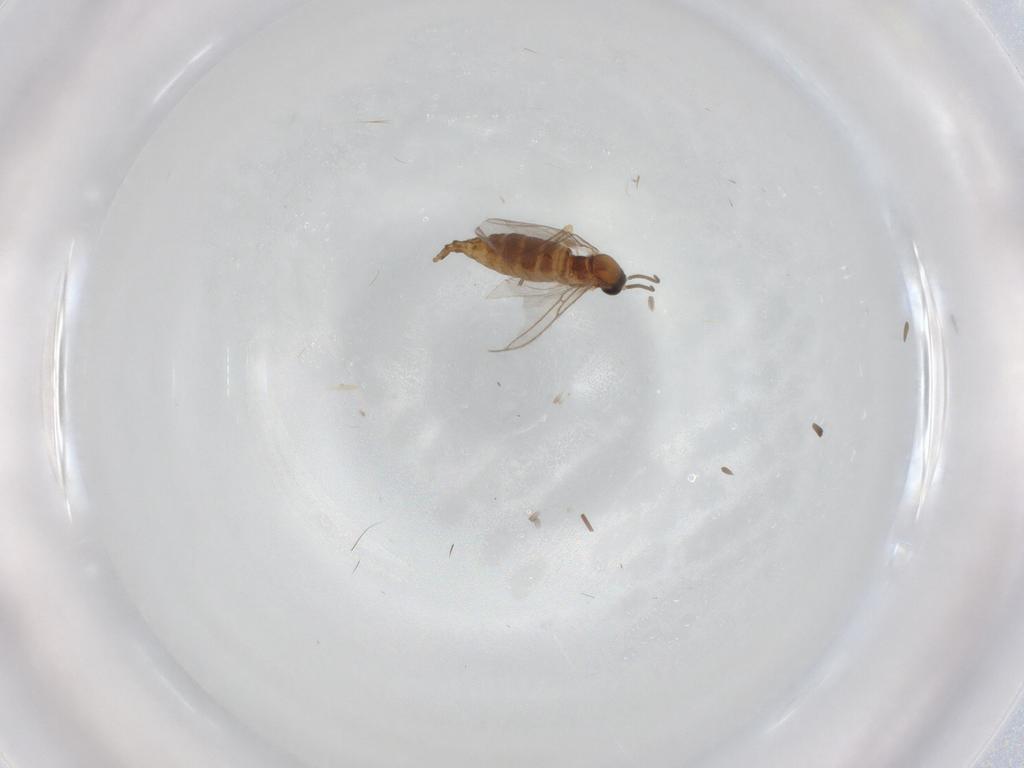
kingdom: Animalia
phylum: Arthropoda
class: Insecta
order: Diptera
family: Sciaridae
